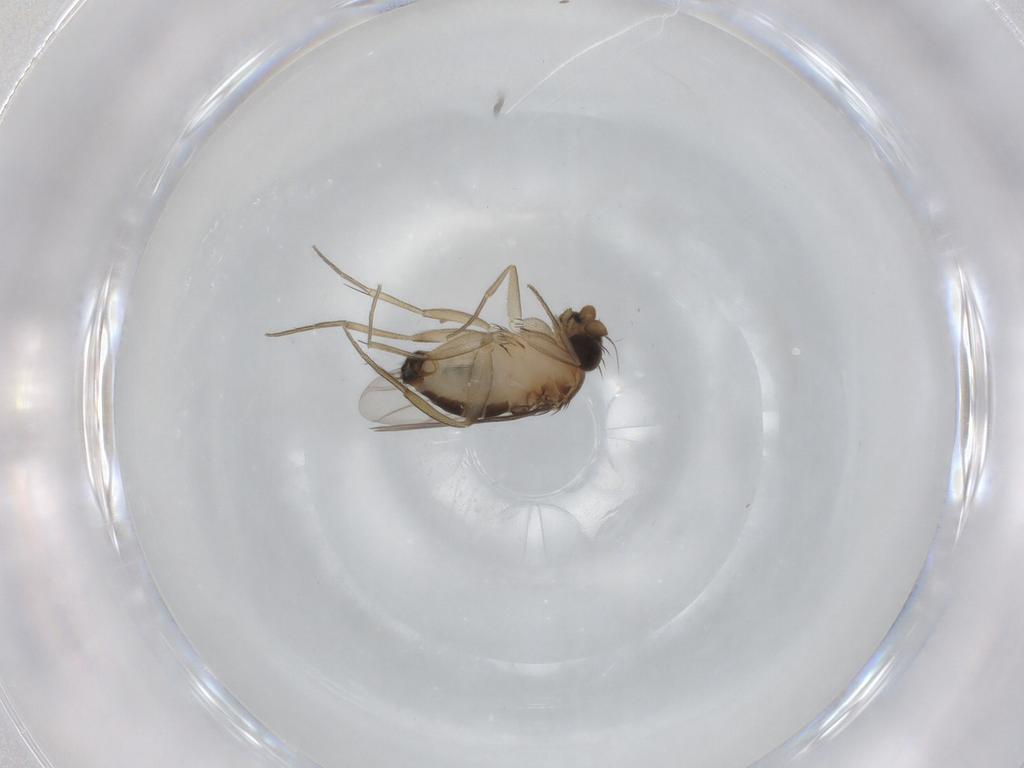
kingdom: Animalia
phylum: Arthropoda
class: Insecta
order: Diptera
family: Phoridae
